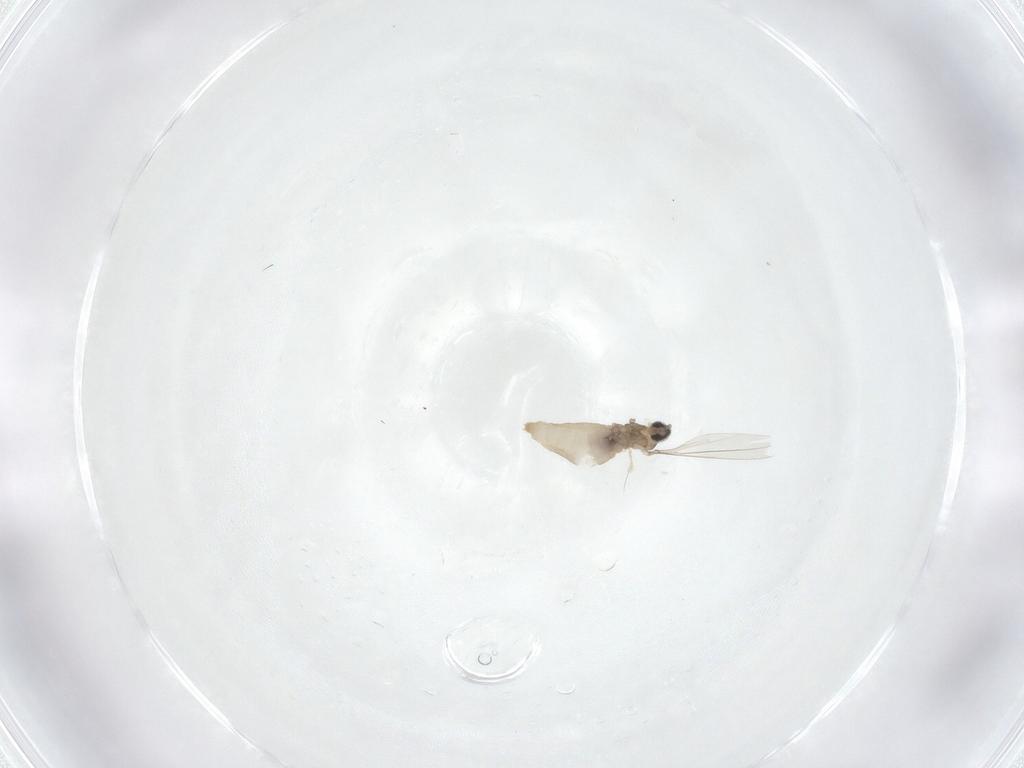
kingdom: Animalia
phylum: Arthropoda
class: Insecta
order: Diptera
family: Cecidomyiidae
